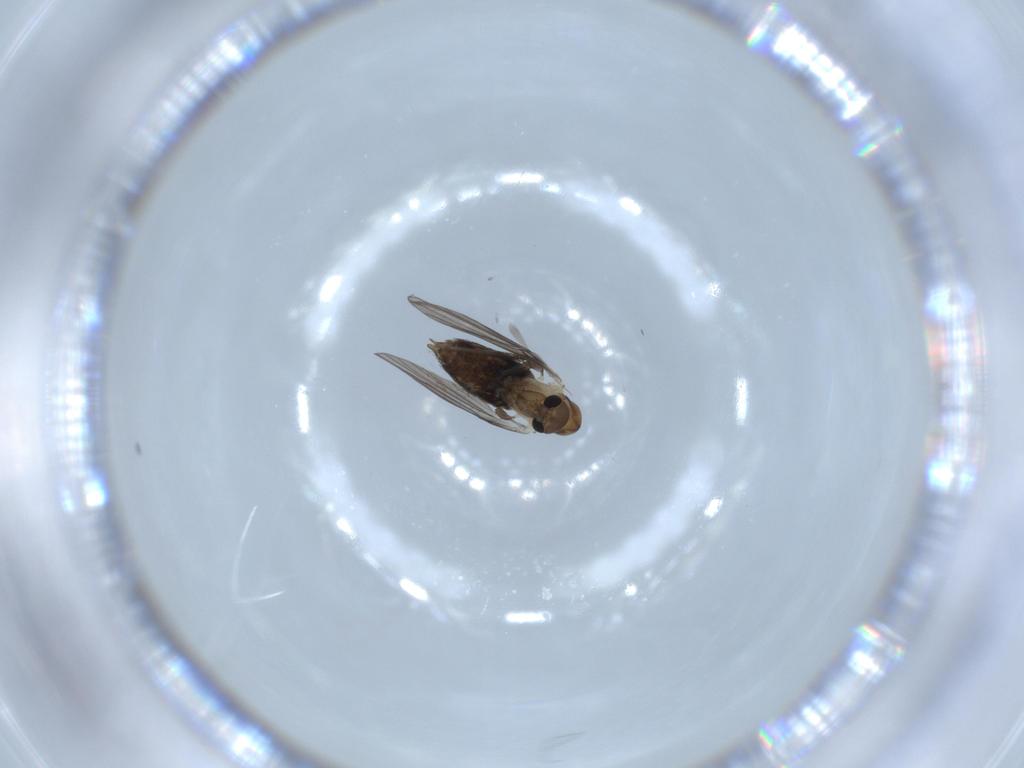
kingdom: Animalia
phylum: Arthropoda
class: Insecta
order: Diptera
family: Psychodidae
